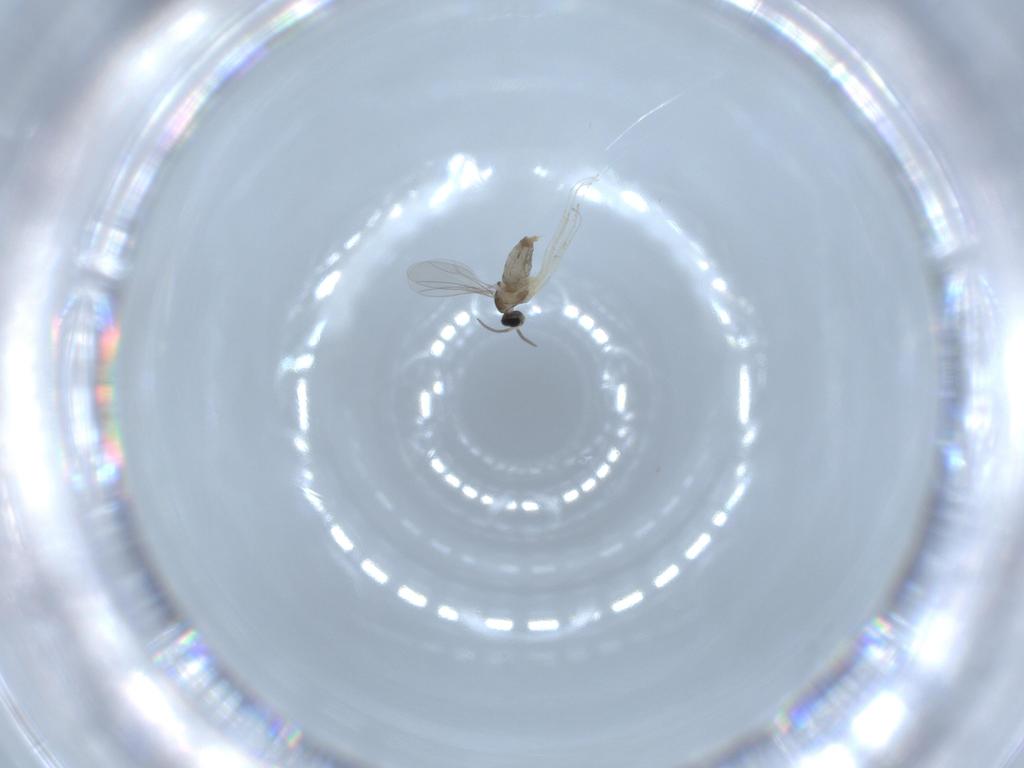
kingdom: Animalia
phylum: Arthropoda
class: Insecta
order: Diptera
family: Cecidomyiidae
